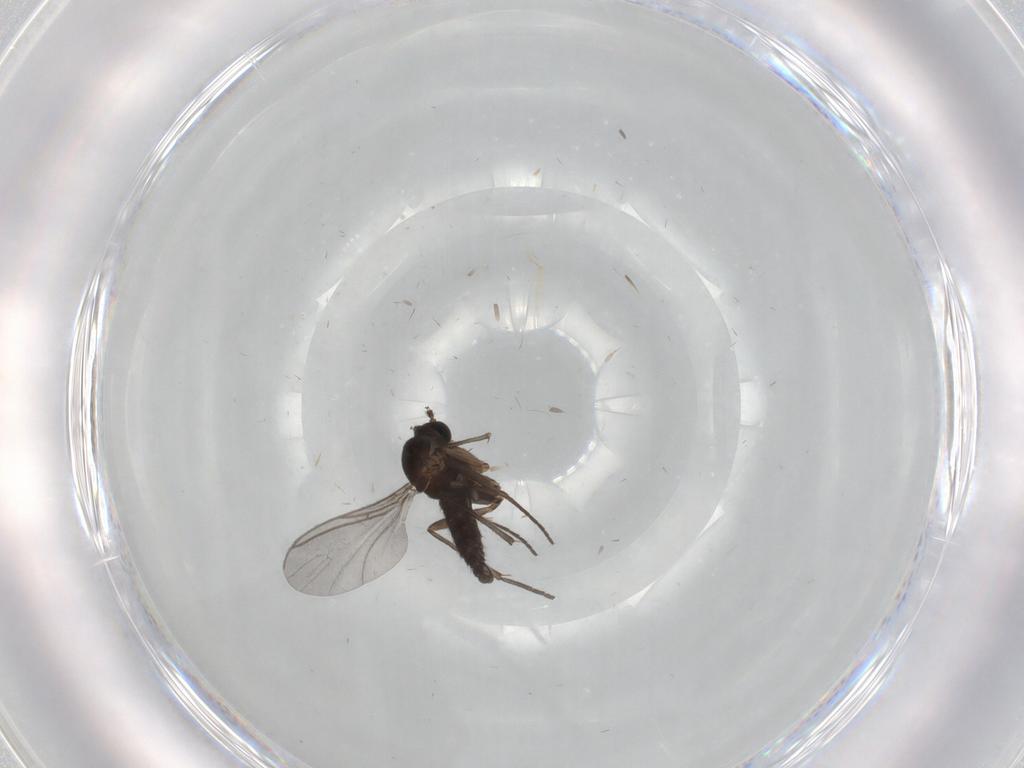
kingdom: Animalia
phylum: Arthropoda
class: Insecta
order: Diptera
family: Sciaridae
